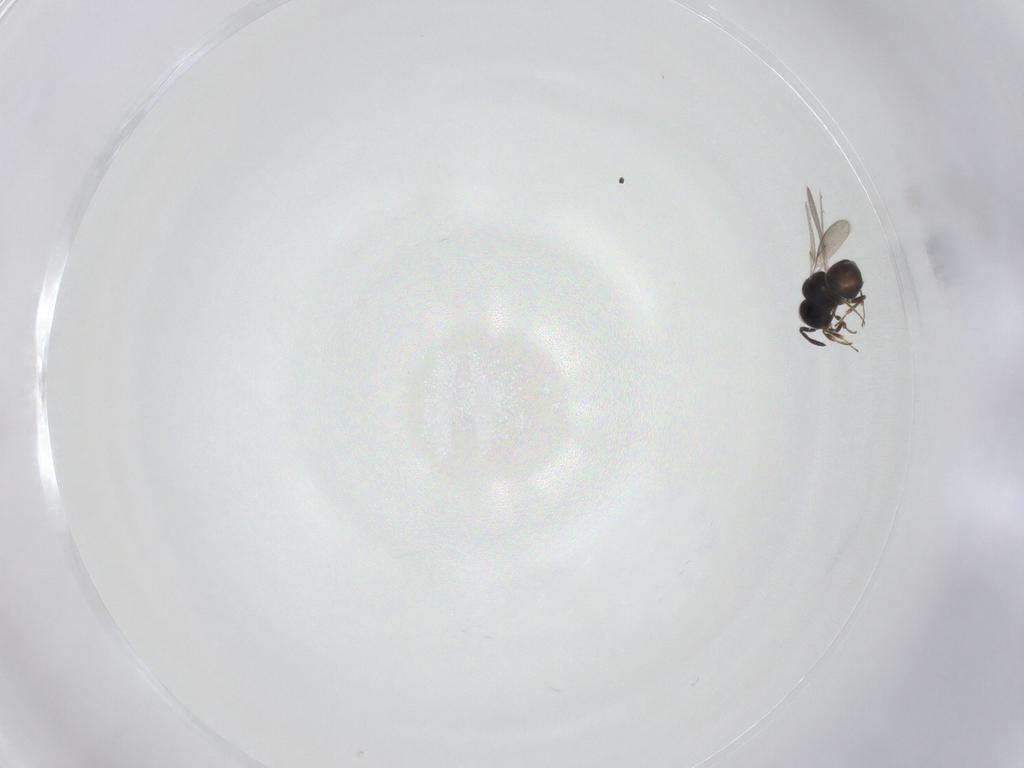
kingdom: Animalia
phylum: Arthropoda
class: Insecta
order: Hymenoptera
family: Scelionidae
